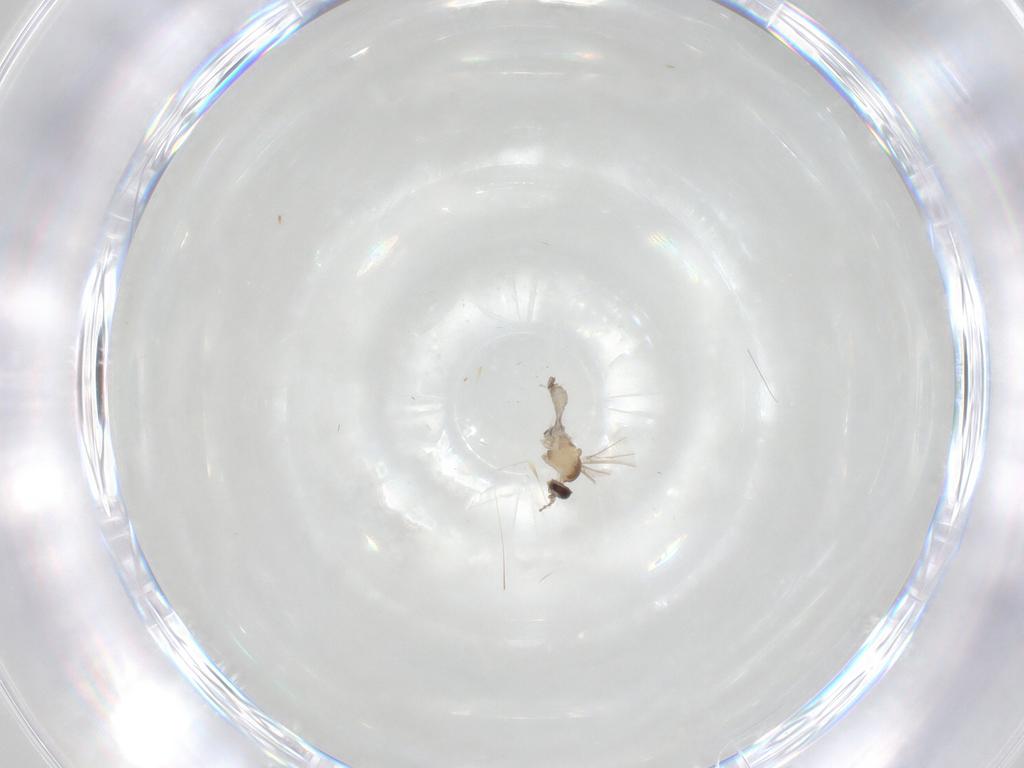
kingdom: Animalia
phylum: Arthropoda
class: Insecta
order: Diptera
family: Cecidomyiidae
